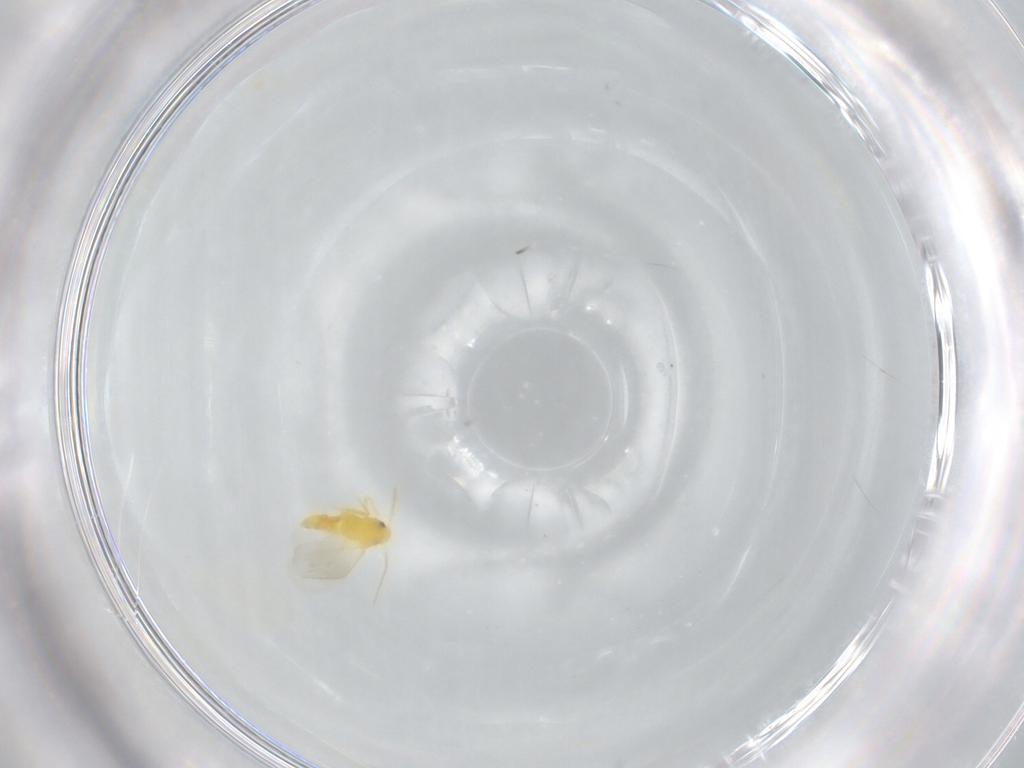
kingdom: Animalia
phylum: Arthropoda
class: Insecta
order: Hemiptera
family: Aleyrodidae
